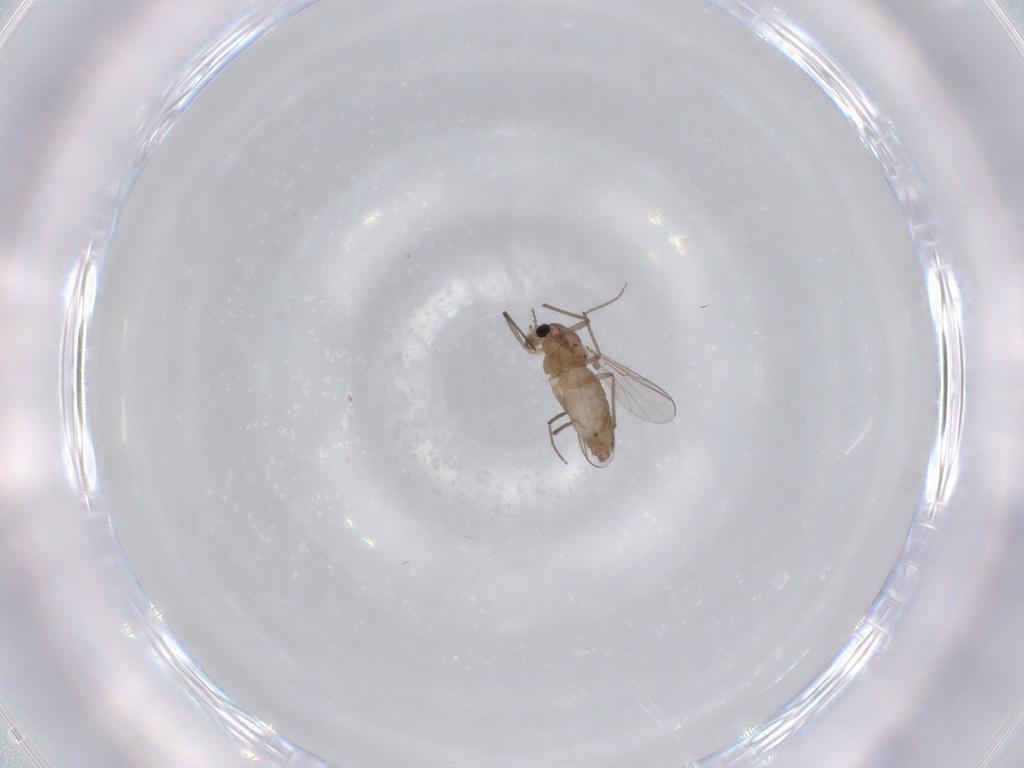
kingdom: Animalia
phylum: Arthropoda
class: Insecta
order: Diptera
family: Chironomidae
